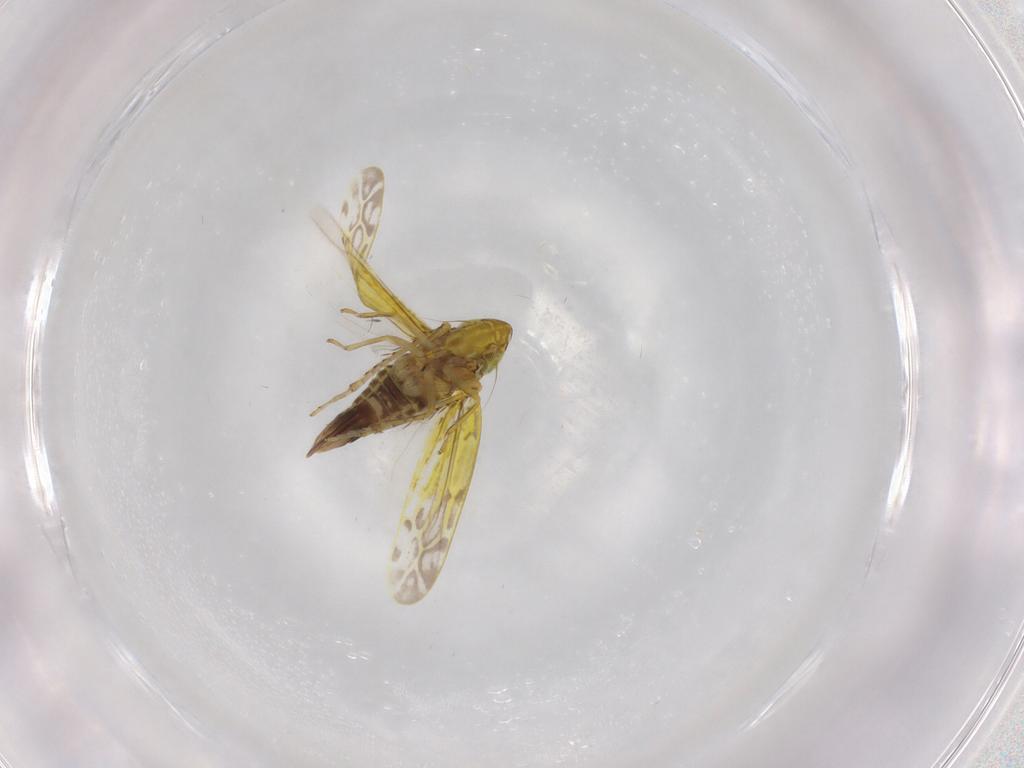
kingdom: Animalia
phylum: Arthropoda
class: Insecta
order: Hemiptera
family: Cicadellidae
